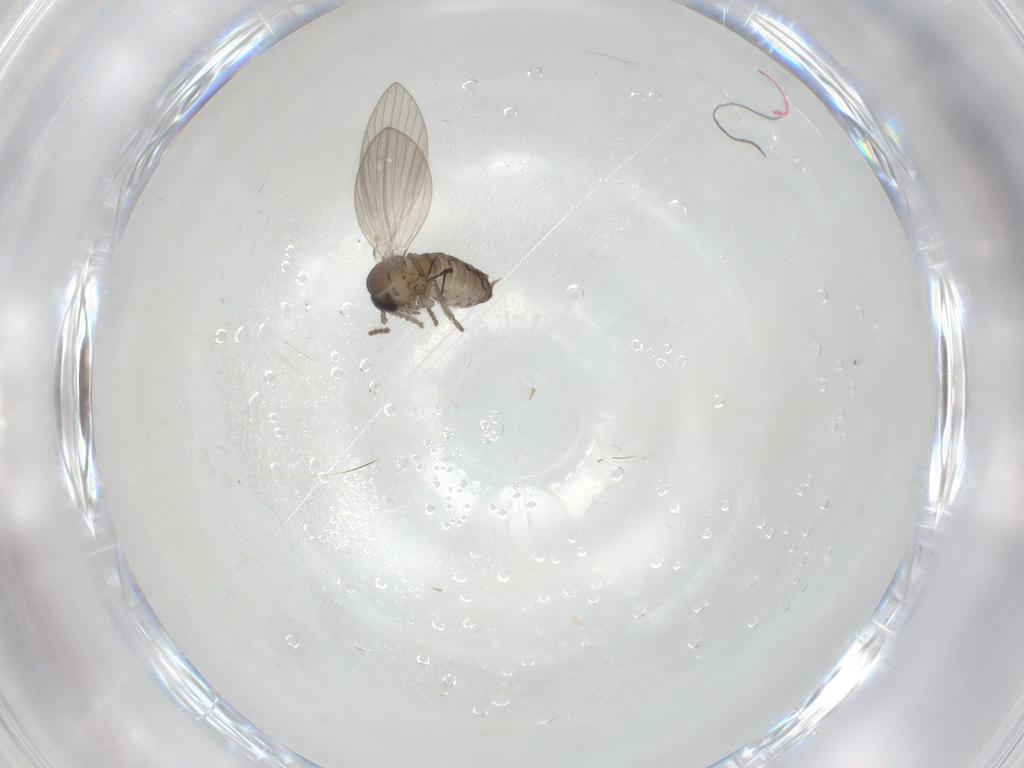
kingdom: Animalia
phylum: Arthropoda
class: Insecta
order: Diptera
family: Psychodidae
